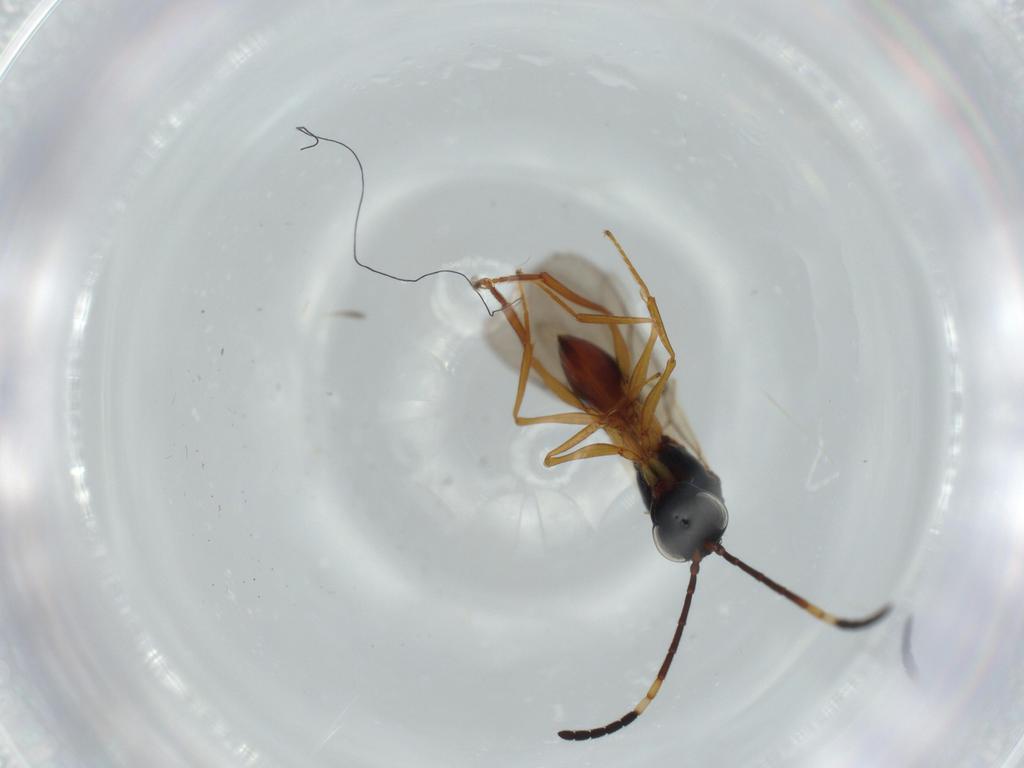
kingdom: Animalia
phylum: Arthropoda
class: Insecta
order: Hymenoptera
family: Figitidae
